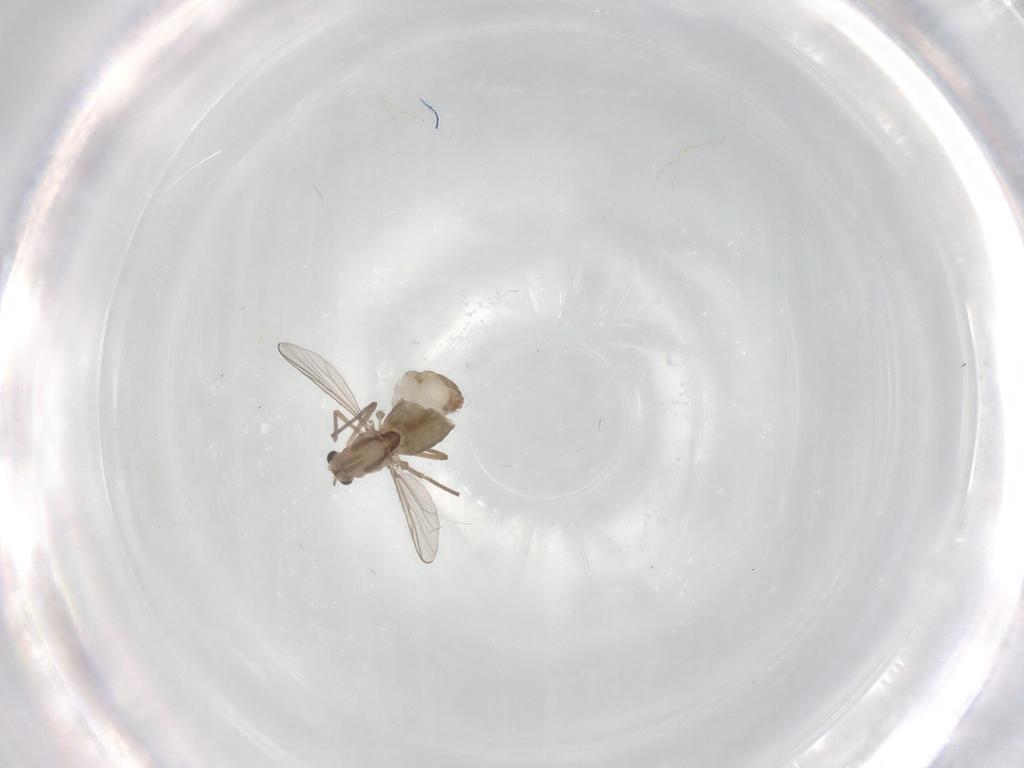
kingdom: Animalia
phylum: Arthropoda
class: Insecta
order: Diptera
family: Chironomidae
